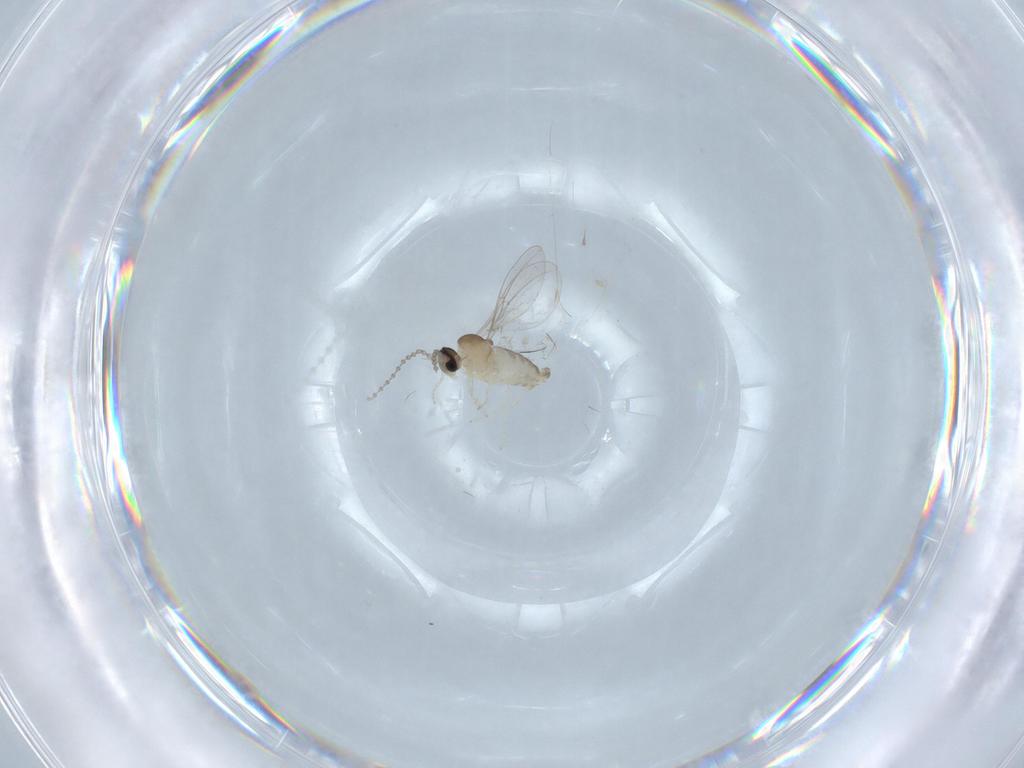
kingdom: Animalia
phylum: Arthropoda
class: Insecta
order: Diptera
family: Cecidomyiidae
